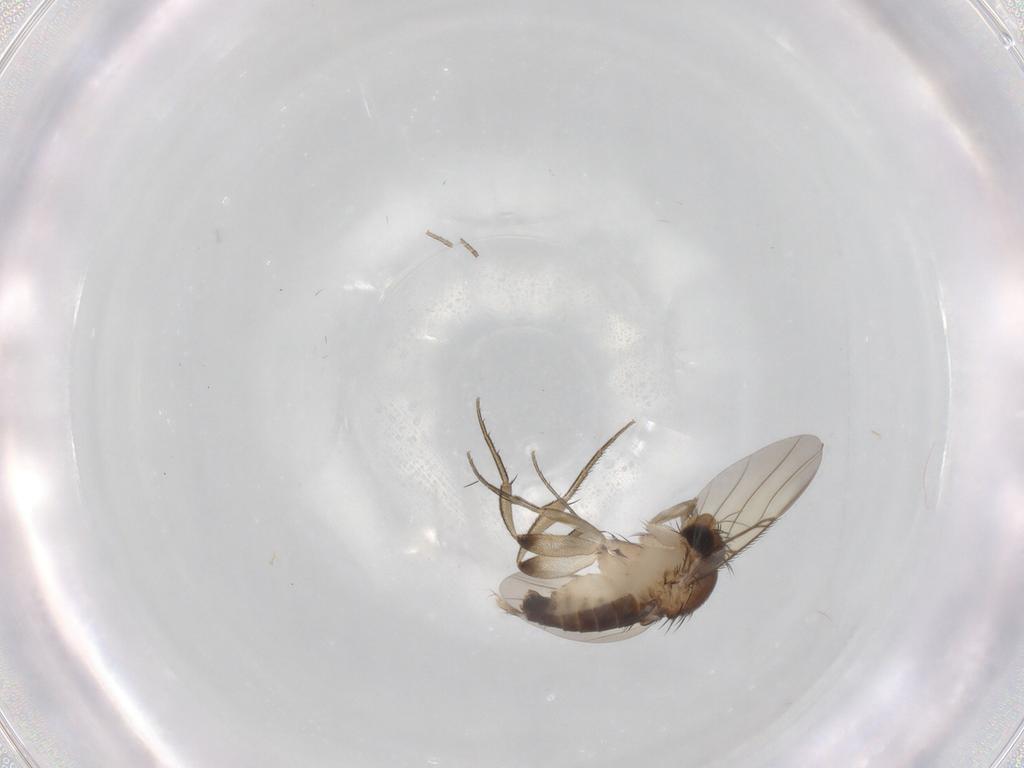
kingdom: Animalia
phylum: Arthropoda
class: Insecta
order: Diptera
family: Phoridae
